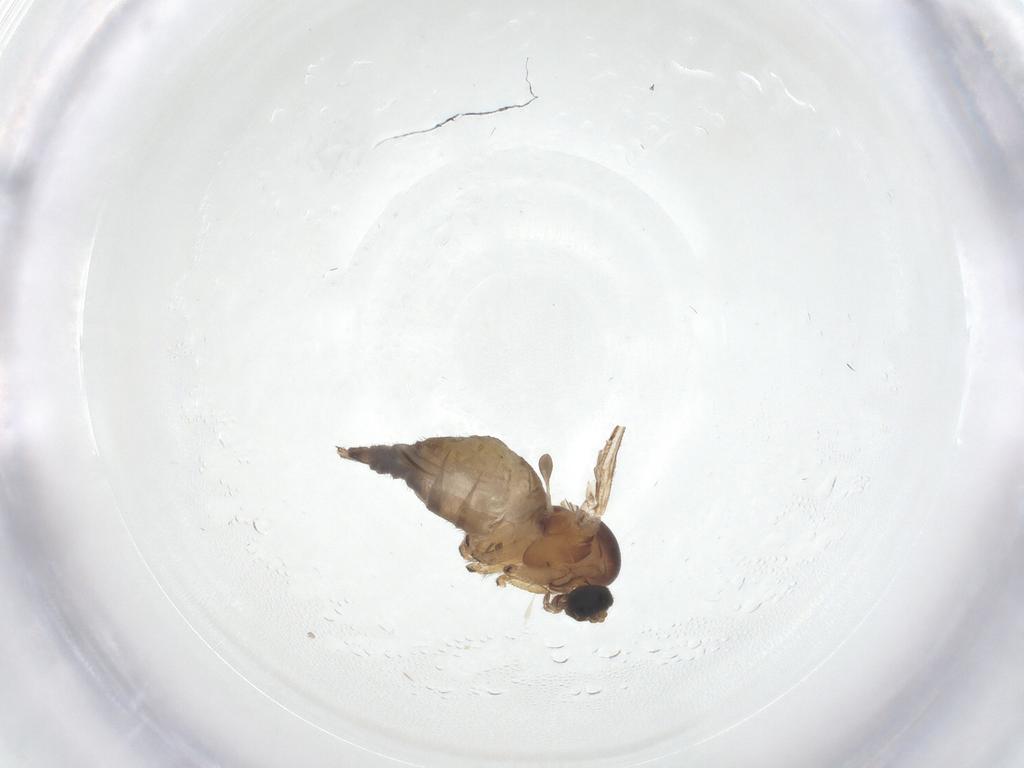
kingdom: Animalia
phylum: Arthropoda
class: Insecta
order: Diptera
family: Sciaridae
